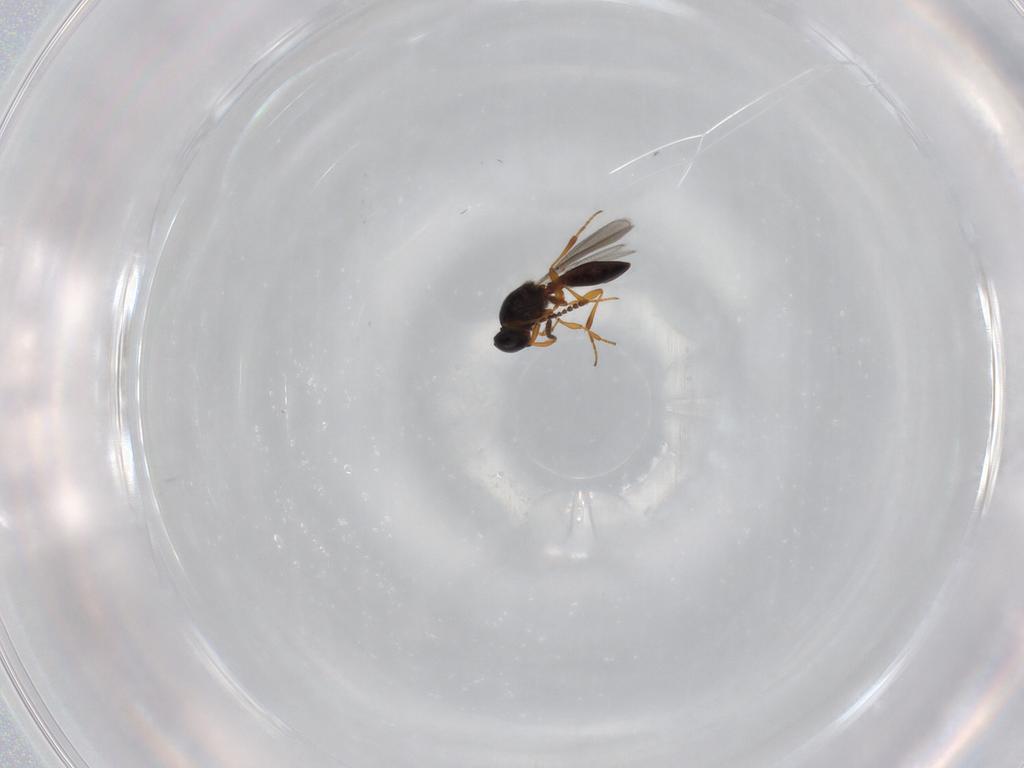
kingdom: Animalia
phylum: Arthropoda
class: Insecta
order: Hymenoptera
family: Platygastridae
